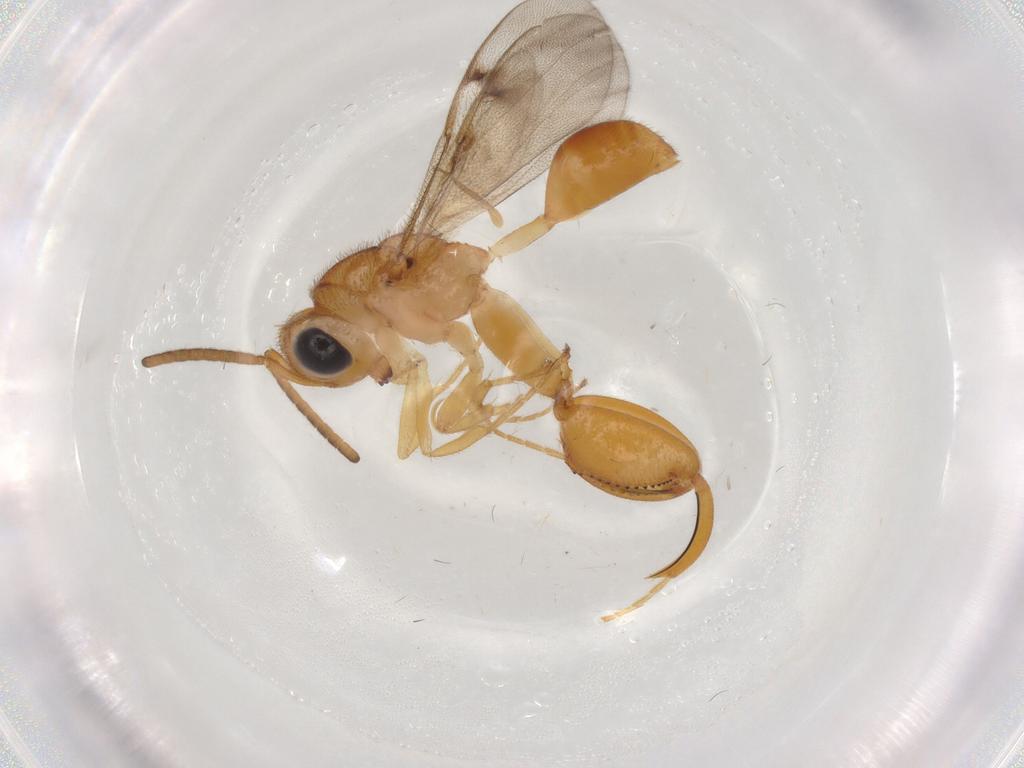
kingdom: Animalia
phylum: Arthropoda
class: Insecta
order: Hymenoptera
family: Chalcididae
